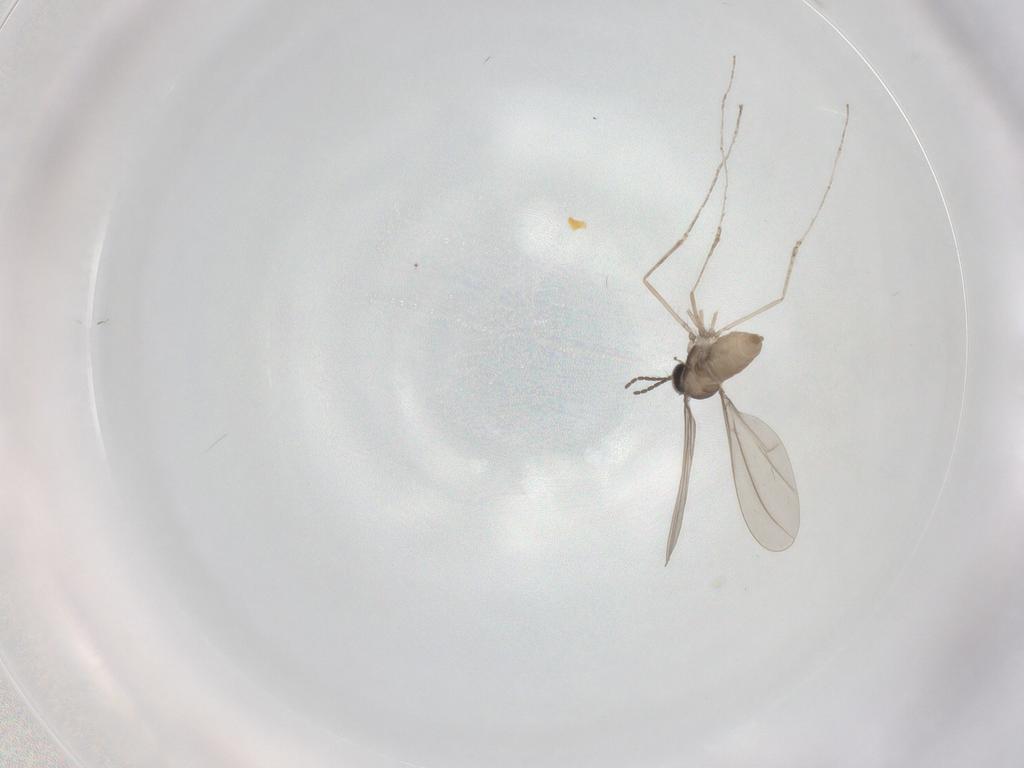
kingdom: Animalia
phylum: Arthropoda
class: Insecta
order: Diptera
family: Cecidomyiidae
